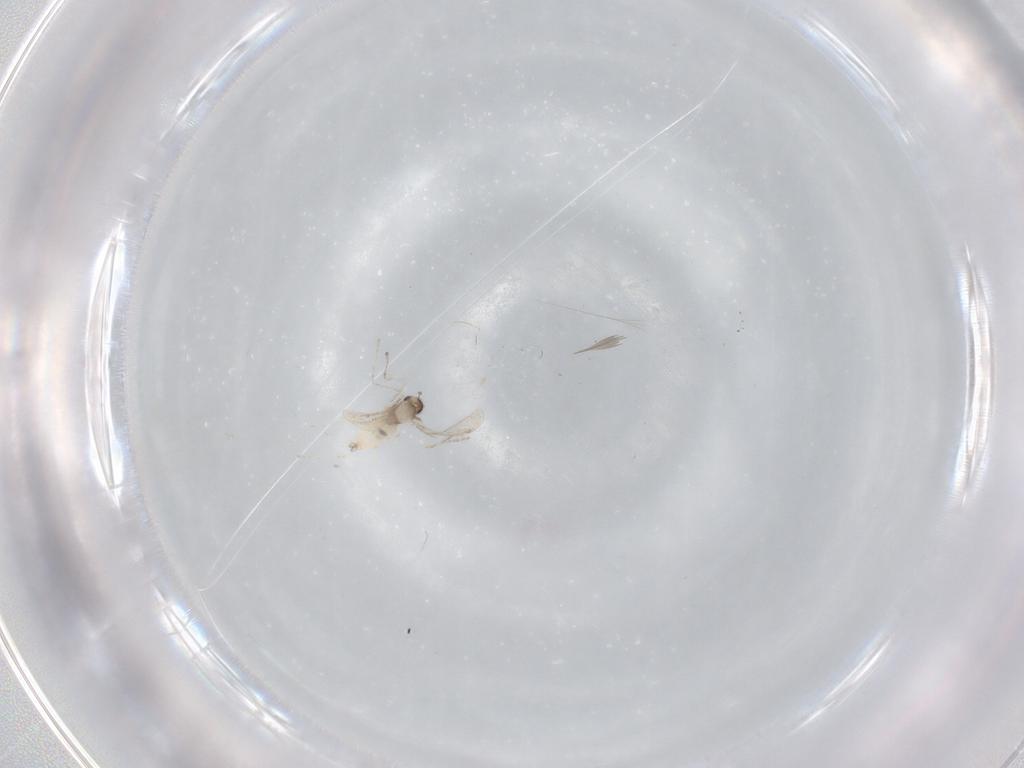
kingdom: Animalia
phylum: Arthropoda
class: Insecta
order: Diptera
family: Cecidomyiidae
